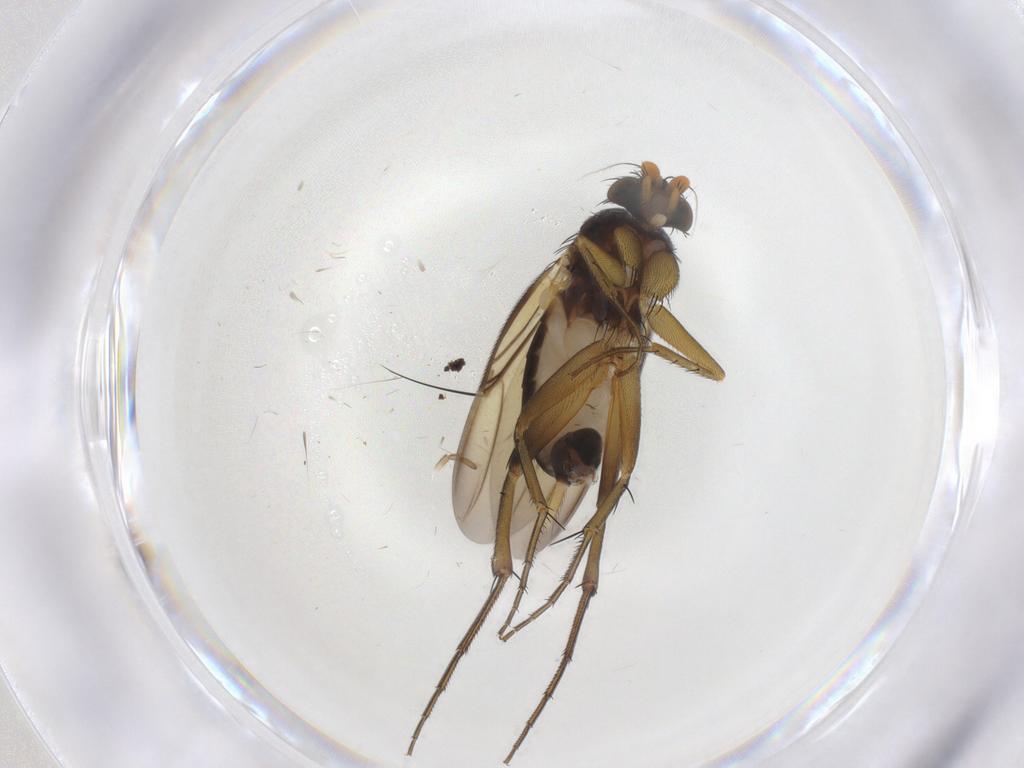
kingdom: Animalia
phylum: Arthropoda
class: Insecta
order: Diptera
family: Phoridae
